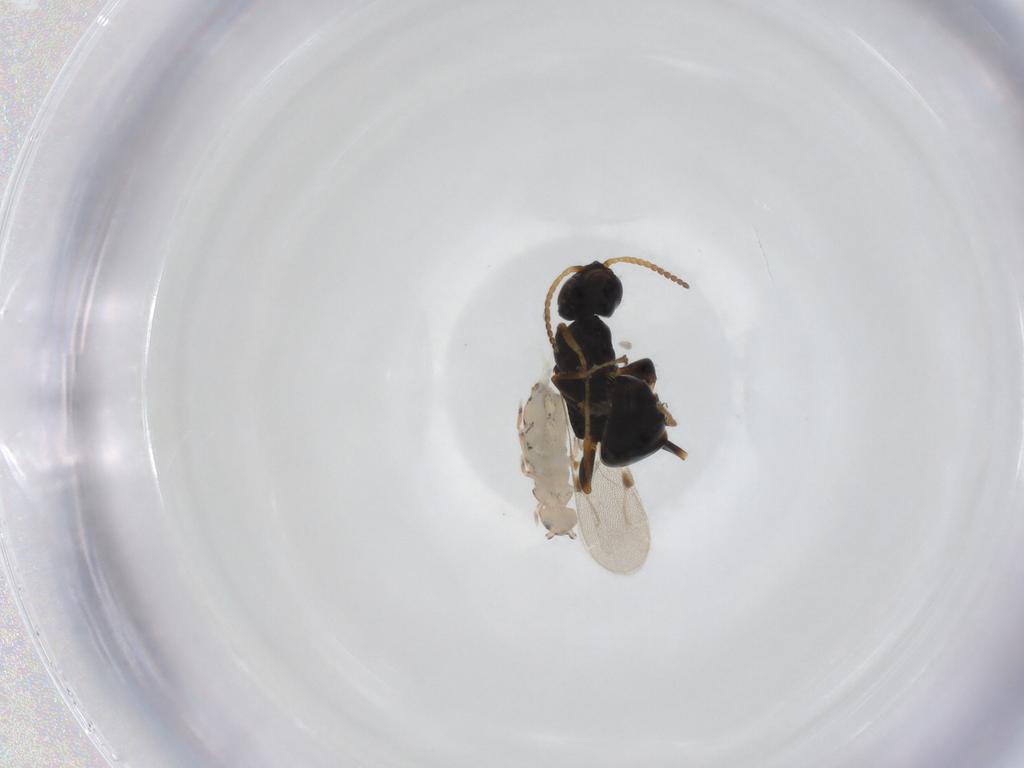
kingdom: Animalia
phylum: Arthropoda
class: Insecta
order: Hymenoptera
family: Bethylidae
